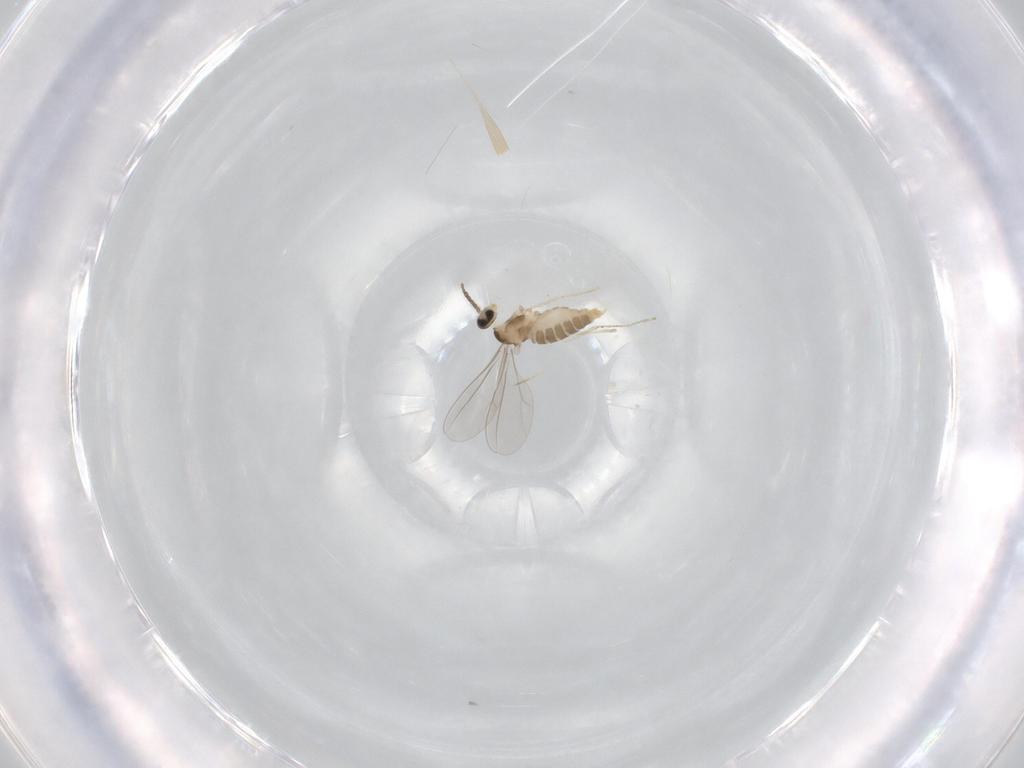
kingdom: Animalia
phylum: Arthropoda
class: Insecta
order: Diptera
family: Cecidomyiidae
